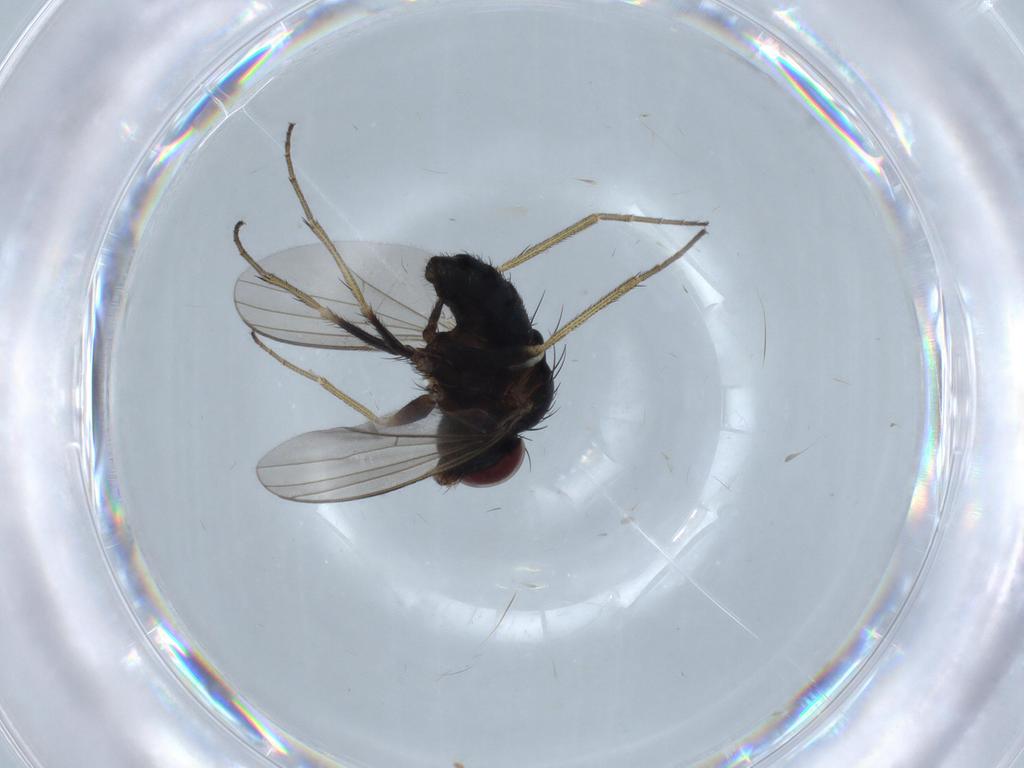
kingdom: Animalia
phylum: Arthropoda
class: Insecta
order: Diptera
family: Dolichopodidae
